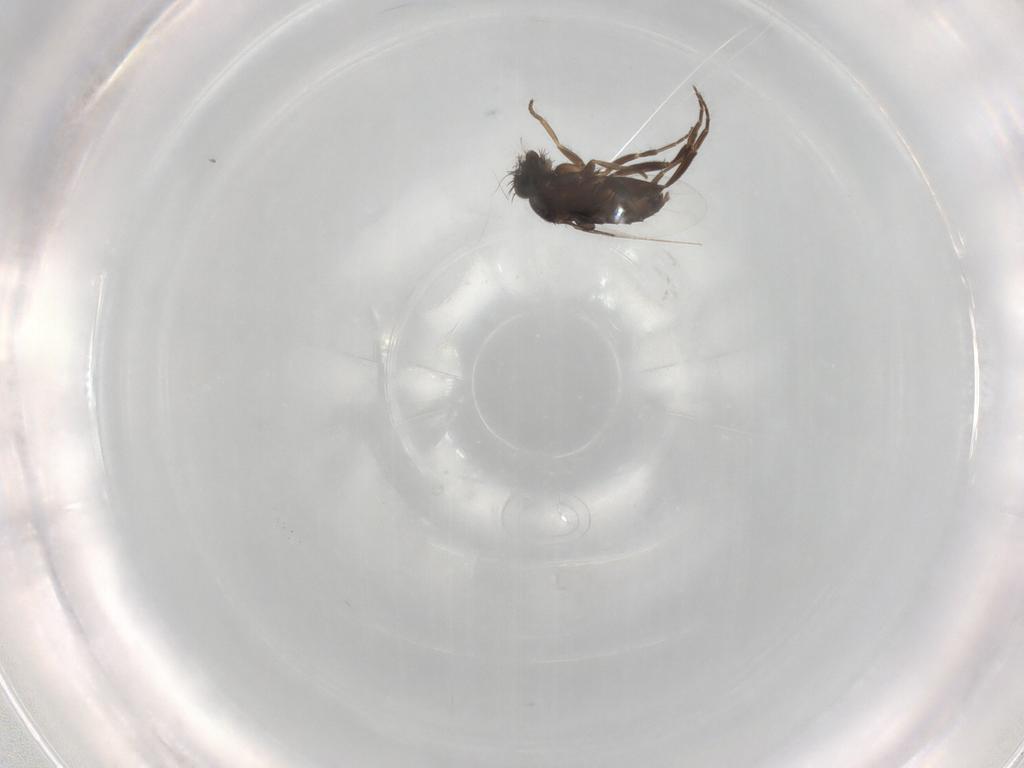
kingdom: Animalia
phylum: Arthropoda
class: Insecta
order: Diptera
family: Phoridae
